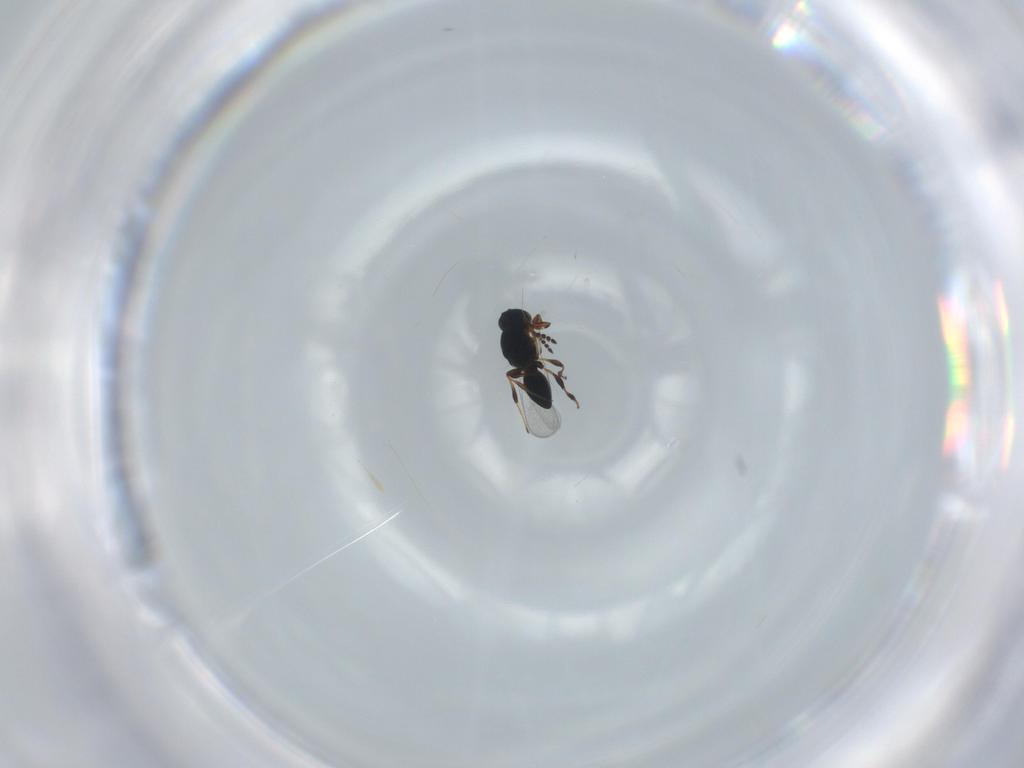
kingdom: Animalia
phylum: Arthropoda
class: Insecta
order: Hymenoptera
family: Platygastridae
